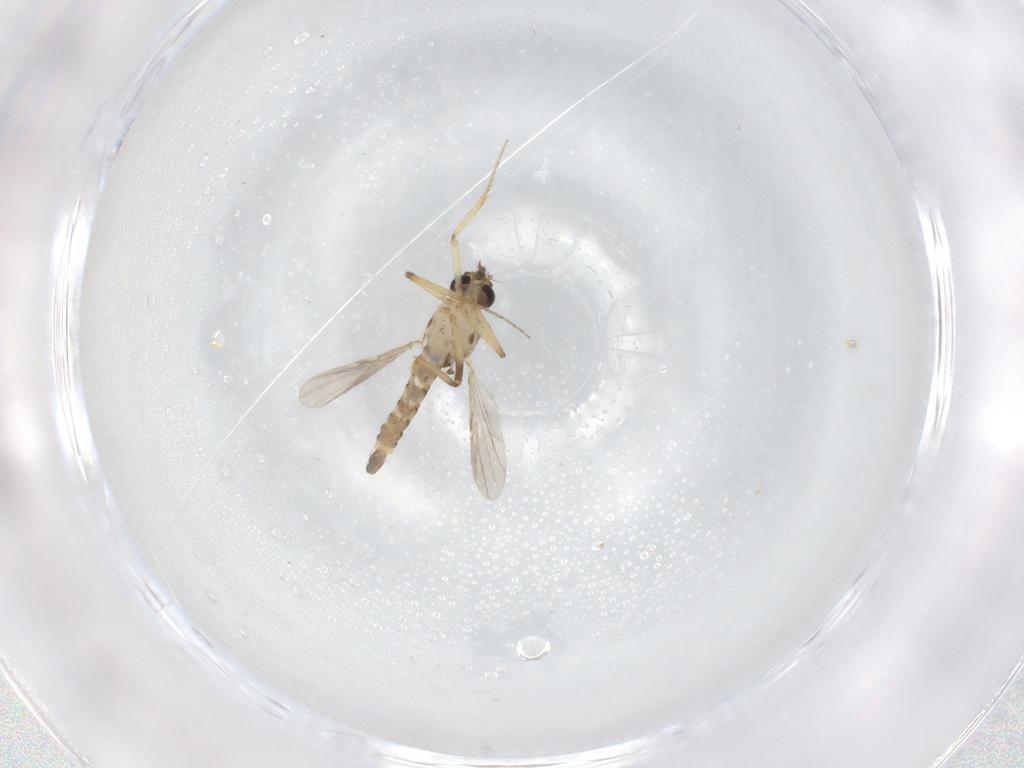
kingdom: Animalia
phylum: Arthropoda
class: Insecta
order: Diptera
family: Ceratopogonidae
